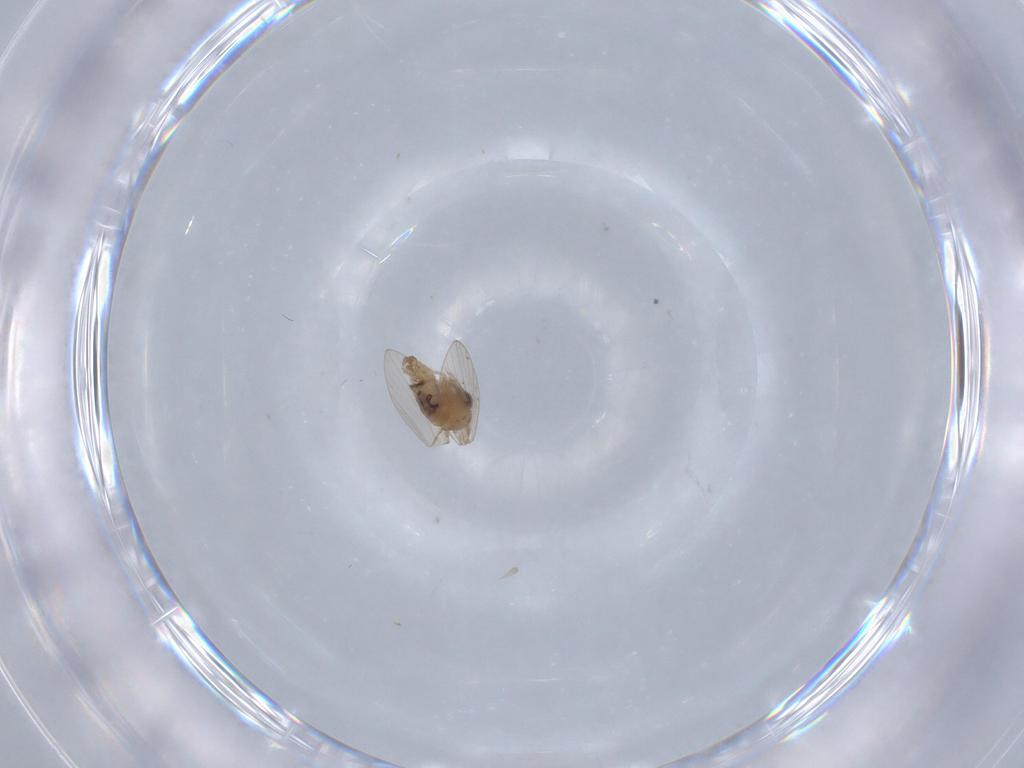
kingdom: Animalia
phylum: Arthropoda
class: Insecta
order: Diptera
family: Psychodidae
